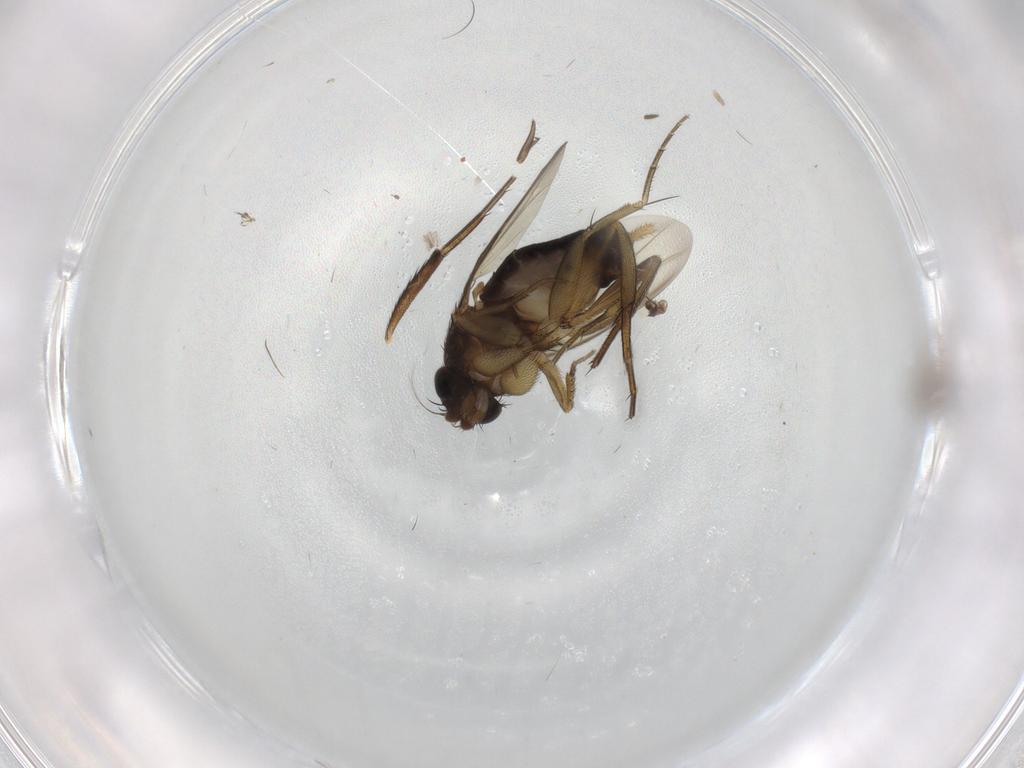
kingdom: Animalia
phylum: Arthropoda
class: Insecta
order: Diptera
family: Cecidomyiidae
